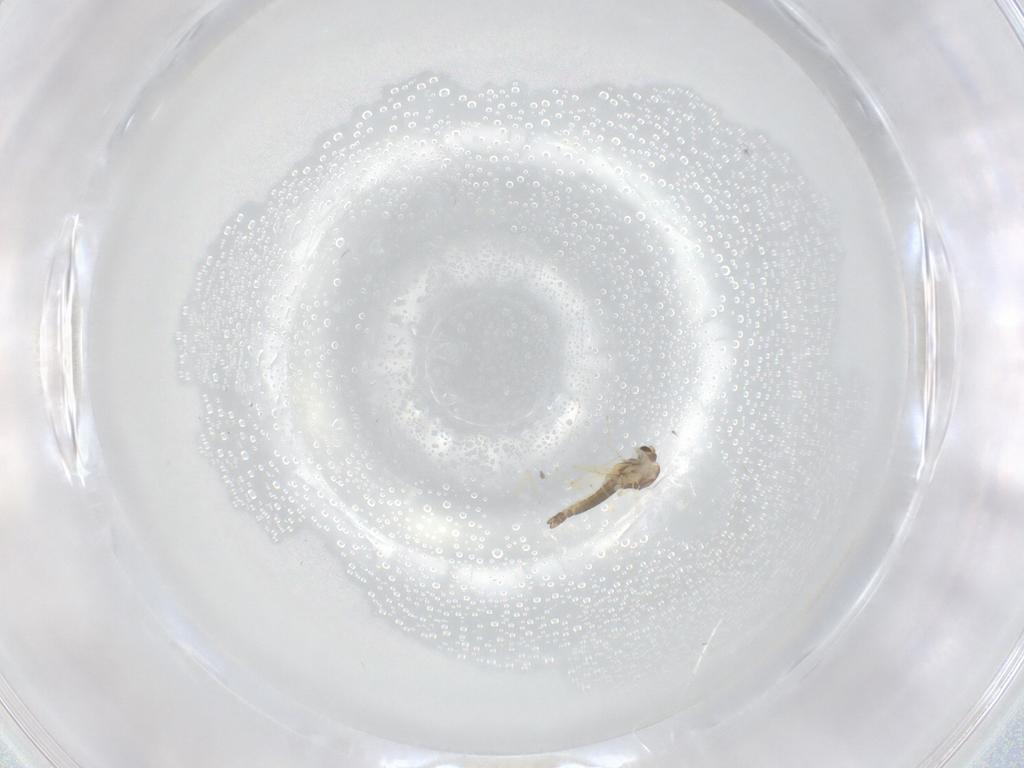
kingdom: Animalia
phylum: Arthropoda
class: Insecta
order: Diptera
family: Chironomidae
